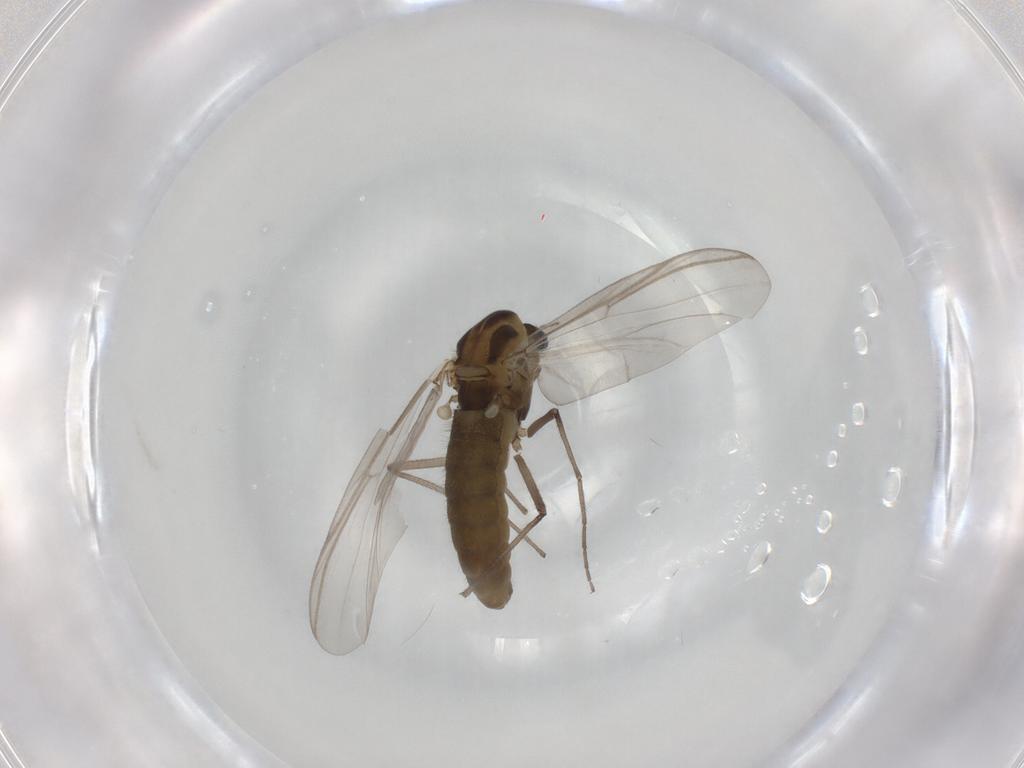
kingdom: Animalia
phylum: Arthropoda
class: Insecta
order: Diptera
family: Chironomidae
